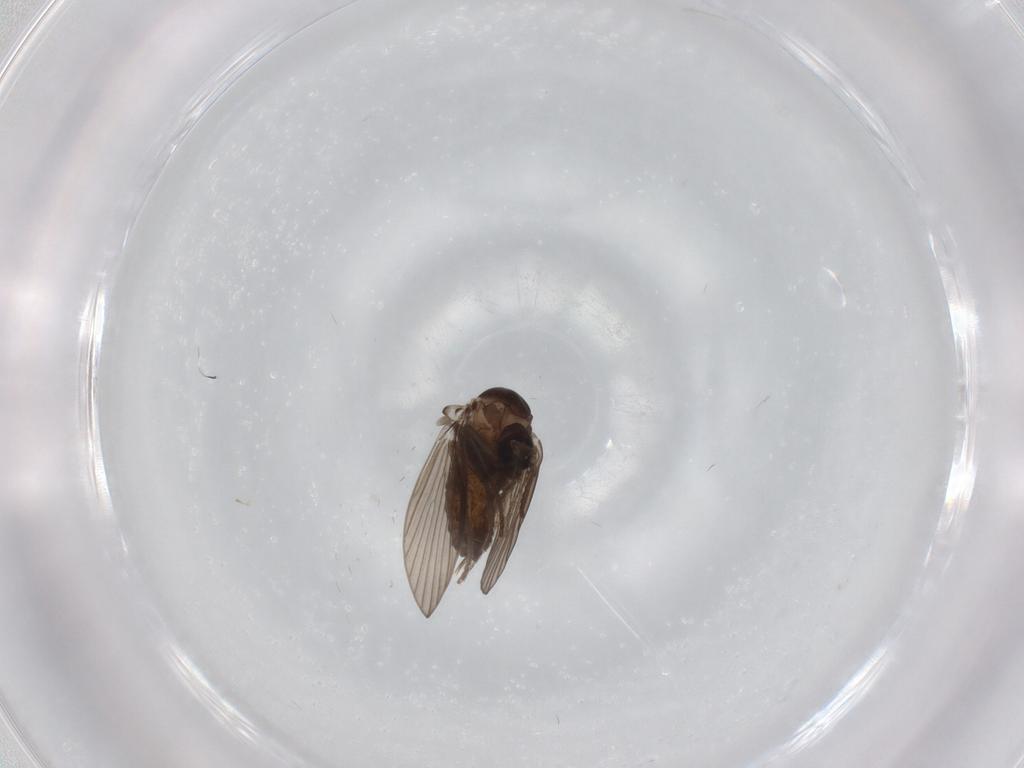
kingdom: Animalia
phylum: Arthropoda
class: Insecta
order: Diptera
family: Psychodidae
